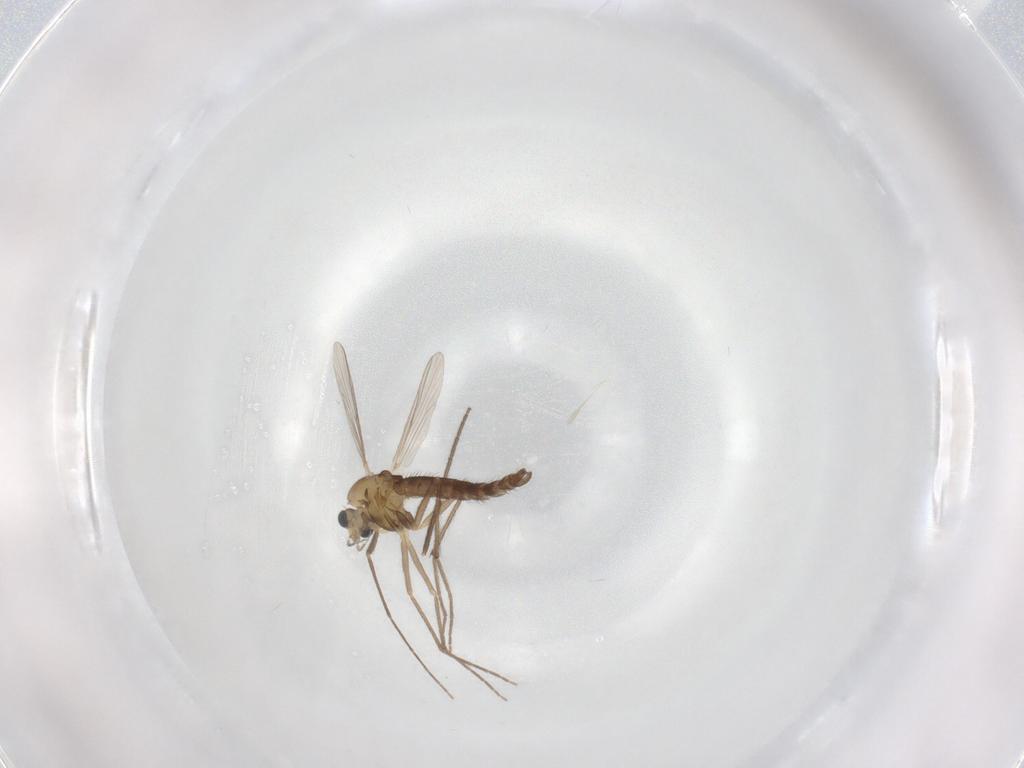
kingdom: Animalia
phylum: Arthropoda
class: Insecta
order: Diptera
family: Chironomidae
